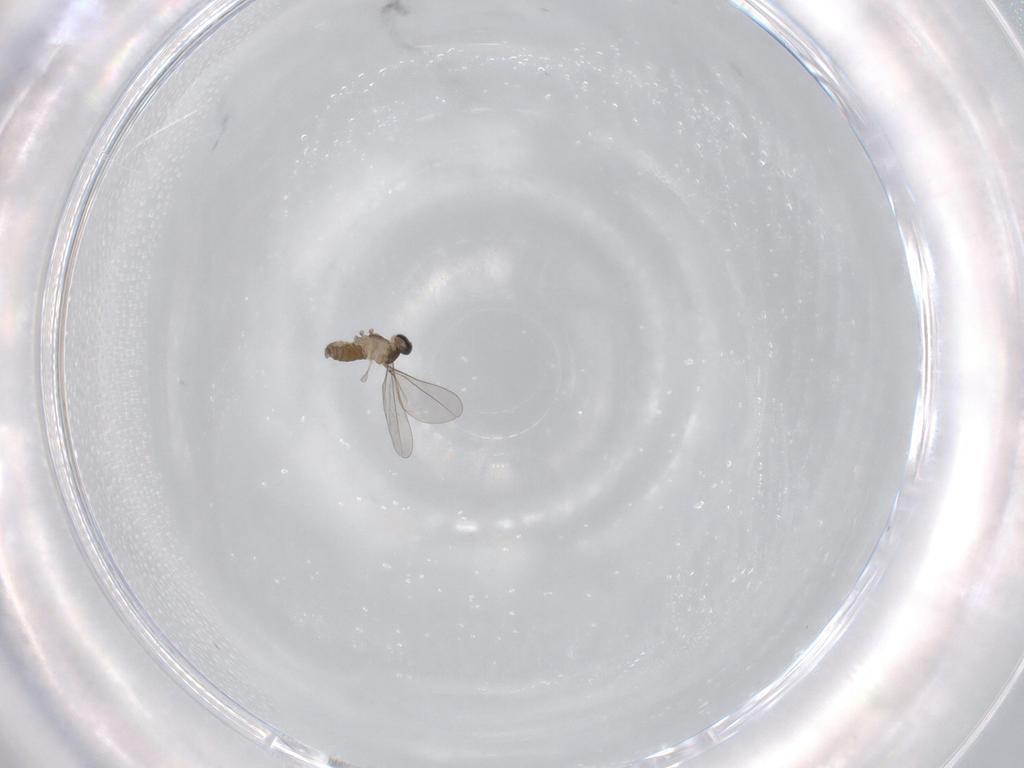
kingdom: Animalia
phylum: Arthropoda
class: Insecta
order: Diptera
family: Cecidomyiidae
